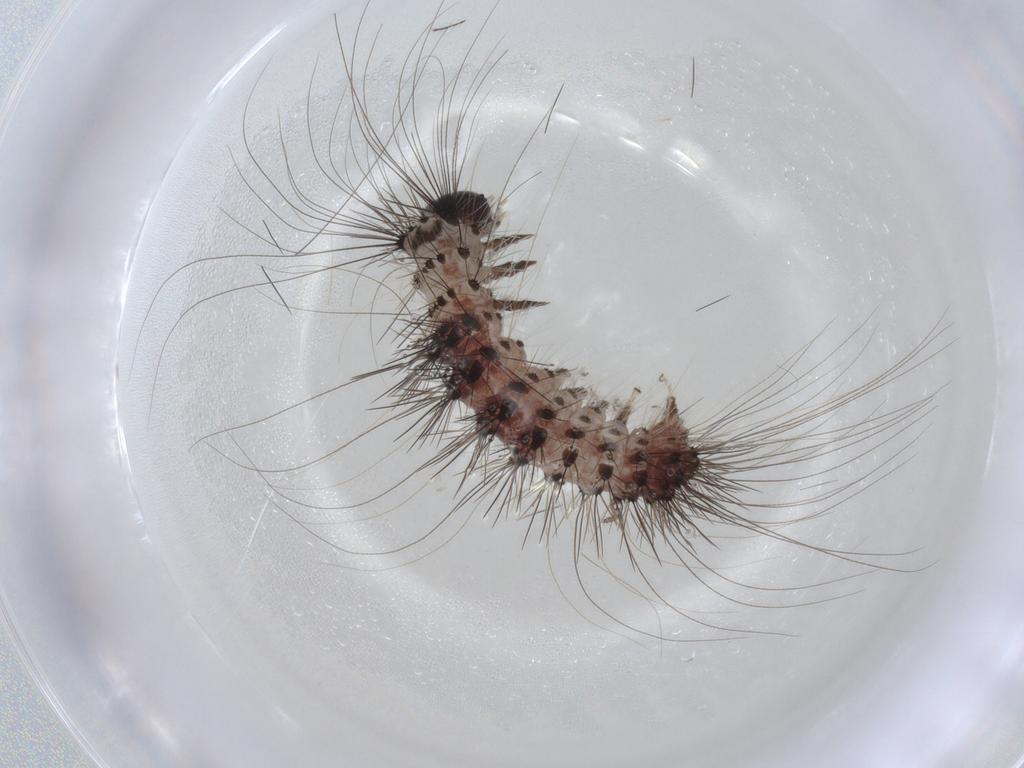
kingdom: Animalia
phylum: Arthropoda
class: Insecta
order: Lepidoptera
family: Erebidae
